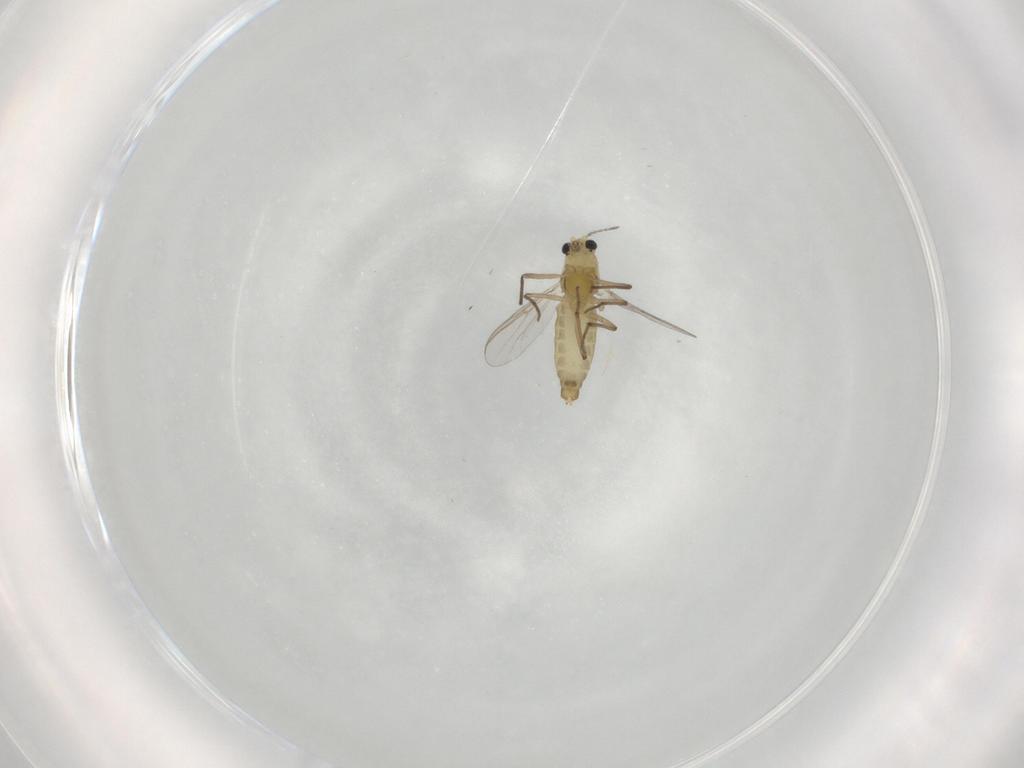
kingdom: Animalia
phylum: Arthropoda
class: Insecta
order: Diptera
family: Chironomidae
